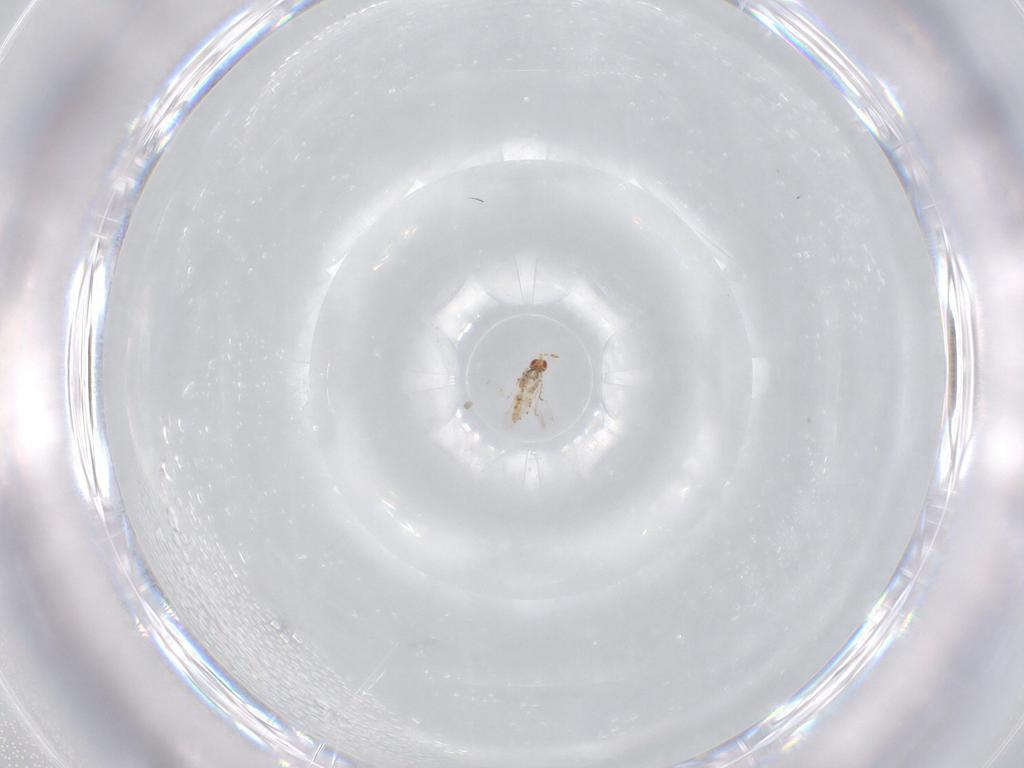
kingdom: Animalia
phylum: Arthropoda
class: Insecta
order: Hymenoptera
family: Trichogrammatidae
